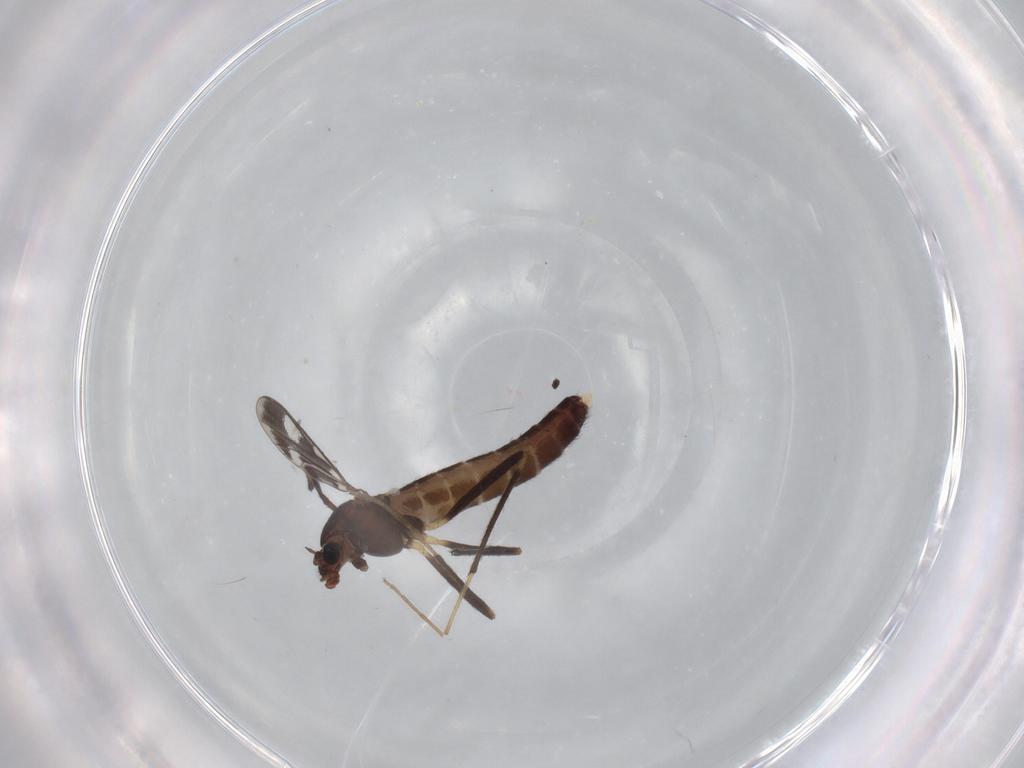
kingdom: Animalia
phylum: Arthropoda
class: Insecta
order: Diptera
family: Chironomidae
